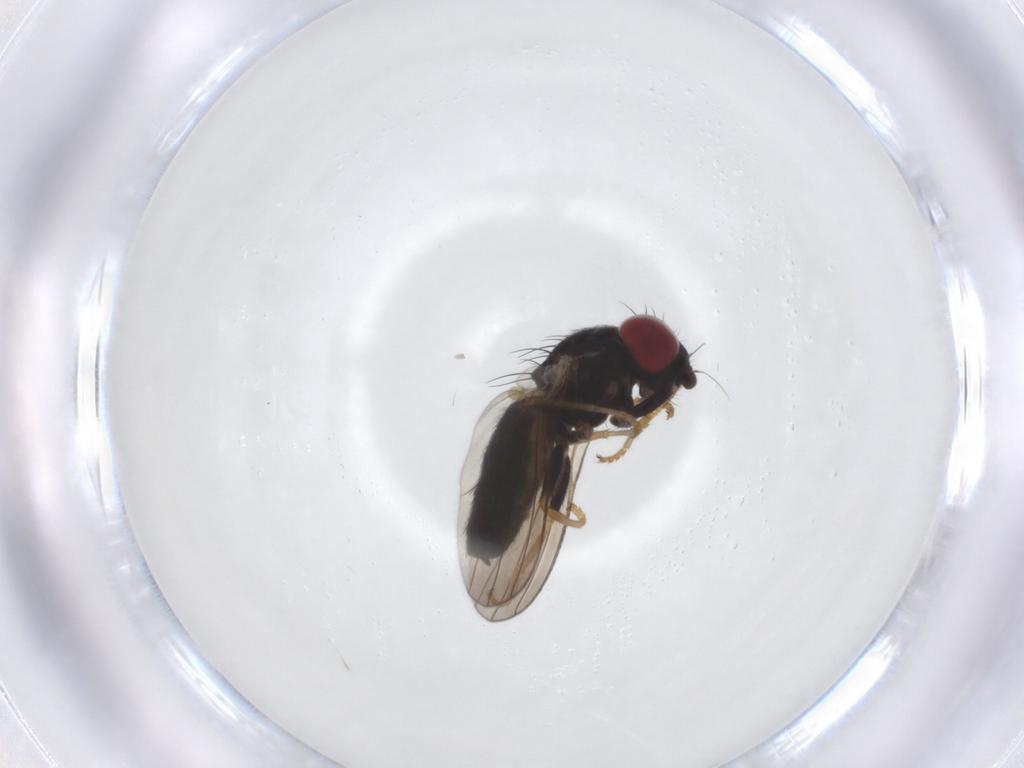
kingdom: Animalia
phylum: Arthropoda
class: Insecta
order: Diptera
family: Chamaemyiidae
